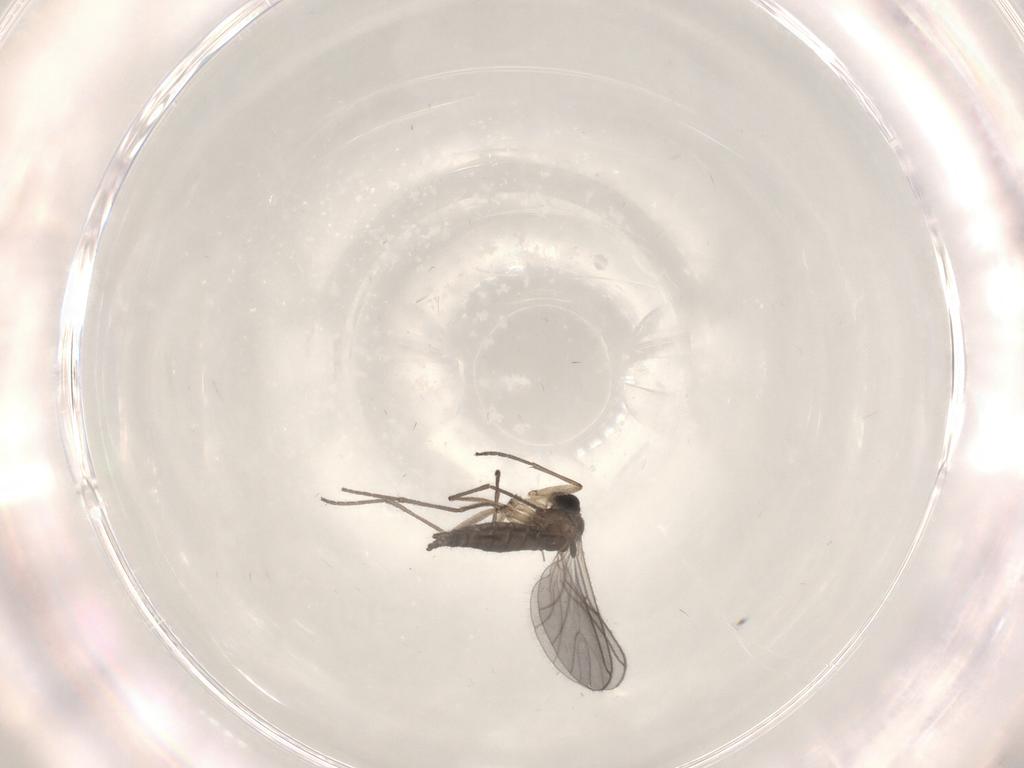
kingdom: Animalia
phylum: Arthropoda
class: Insecta
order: Diptera
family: Sciaridae
